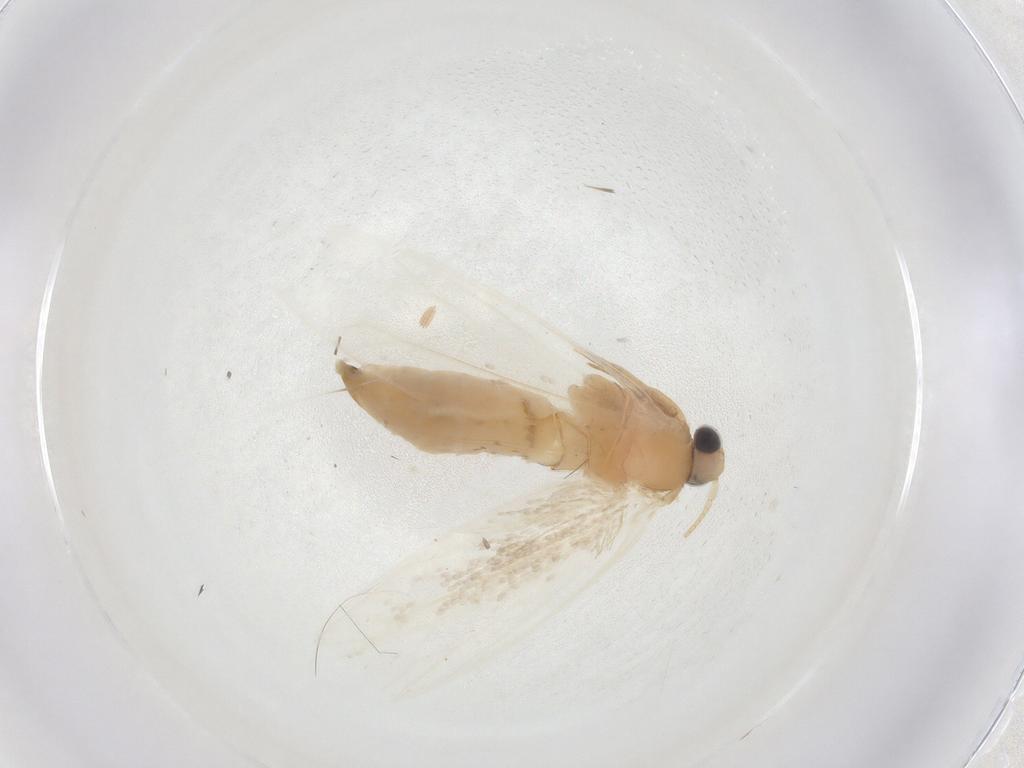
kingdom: Animalia
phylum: Arthropoda
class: Insecta
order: Lepidoptera
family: Tineidae
